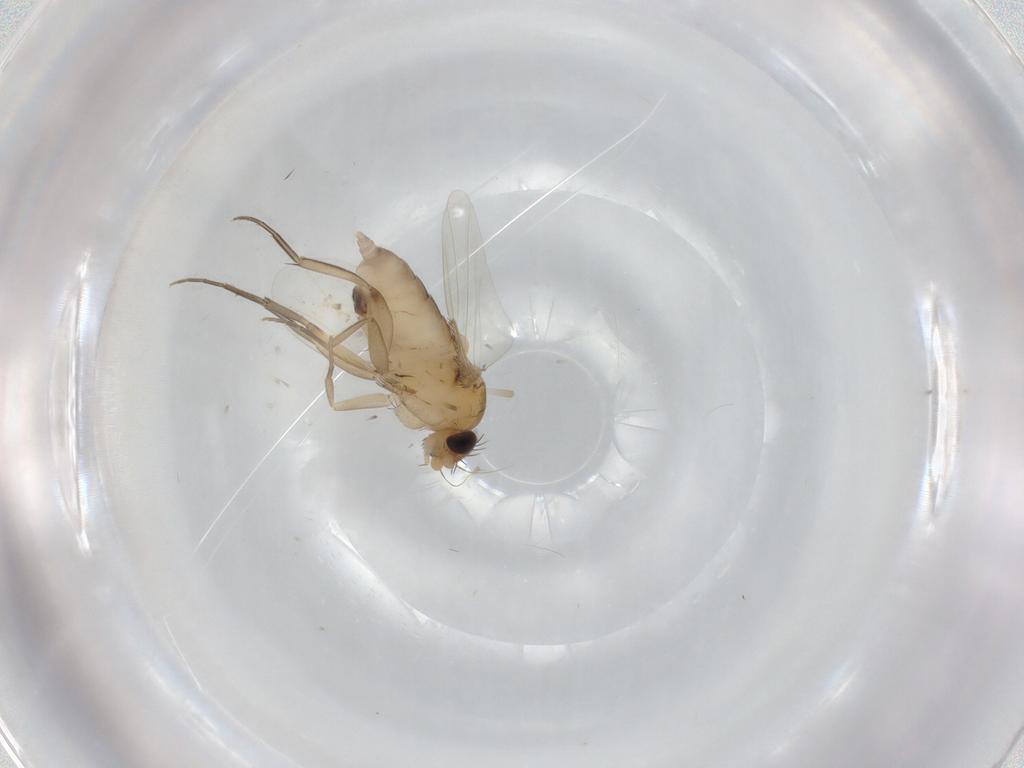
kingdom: Animalia
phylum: Arthropoda
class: Insecta
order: Diptera
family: Phoridae
